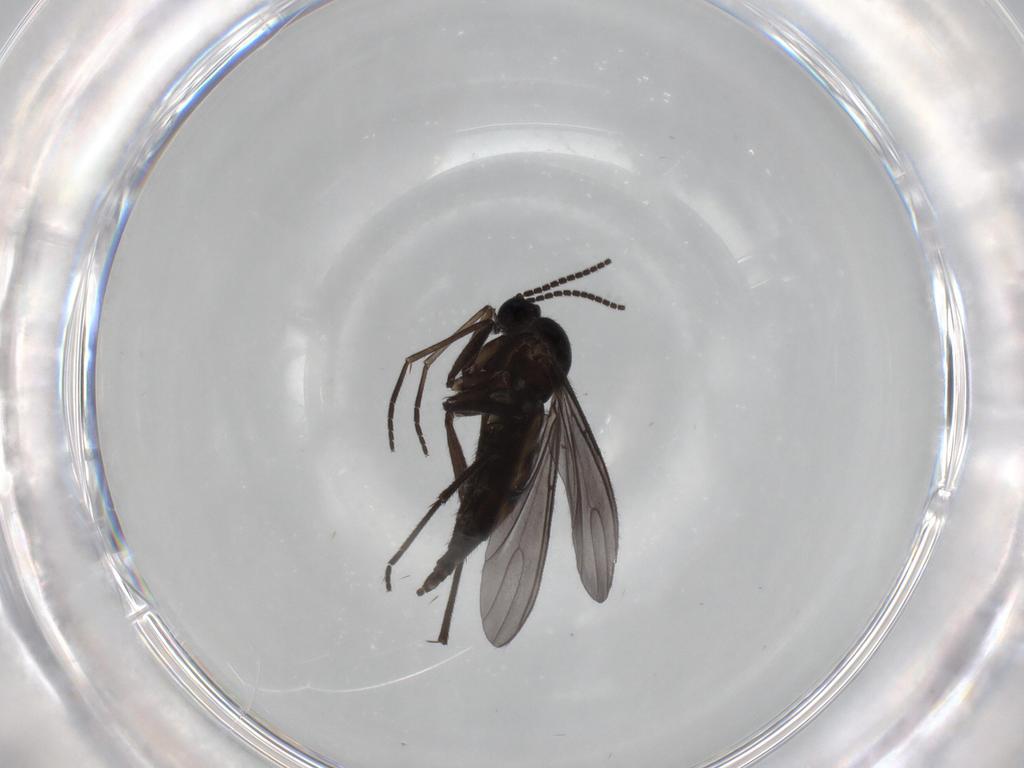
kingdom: Animalia
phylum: Arthropoda
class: Insecta
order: Diptera
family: Sciaridae
